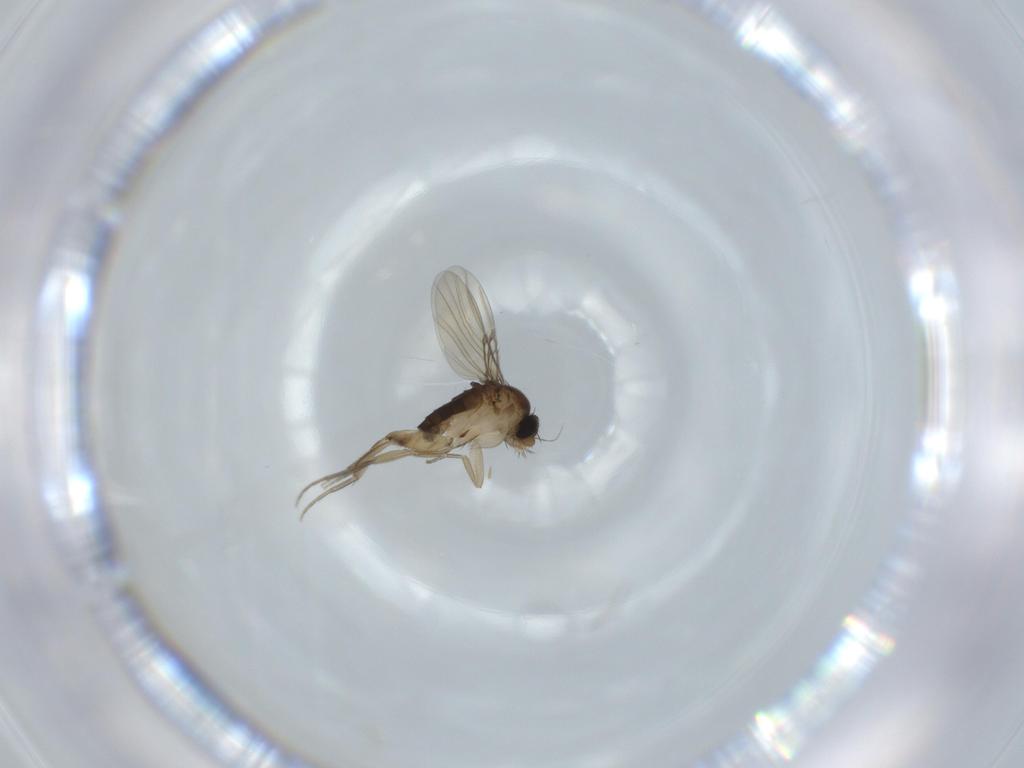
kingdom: Animalia
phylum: Arthropoda
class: Insecta
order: Diptera
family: Phoridae
